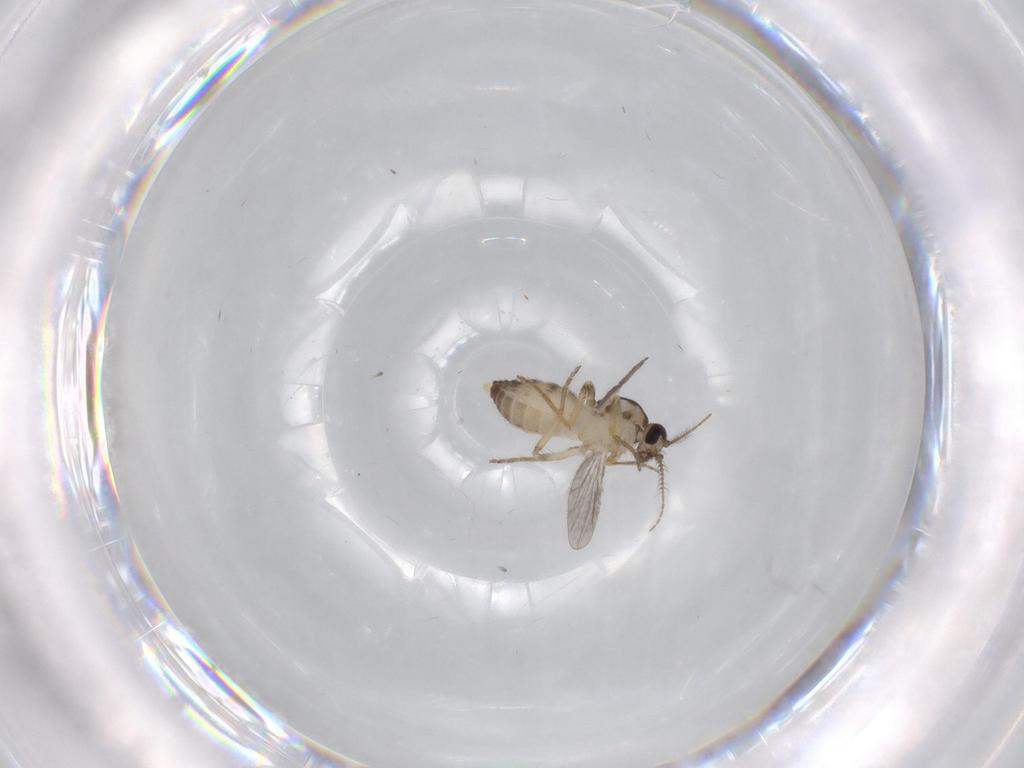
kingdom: Animalia
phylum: Arthropoda
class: Insecta
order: Diptera
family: Ceratopogonidae
